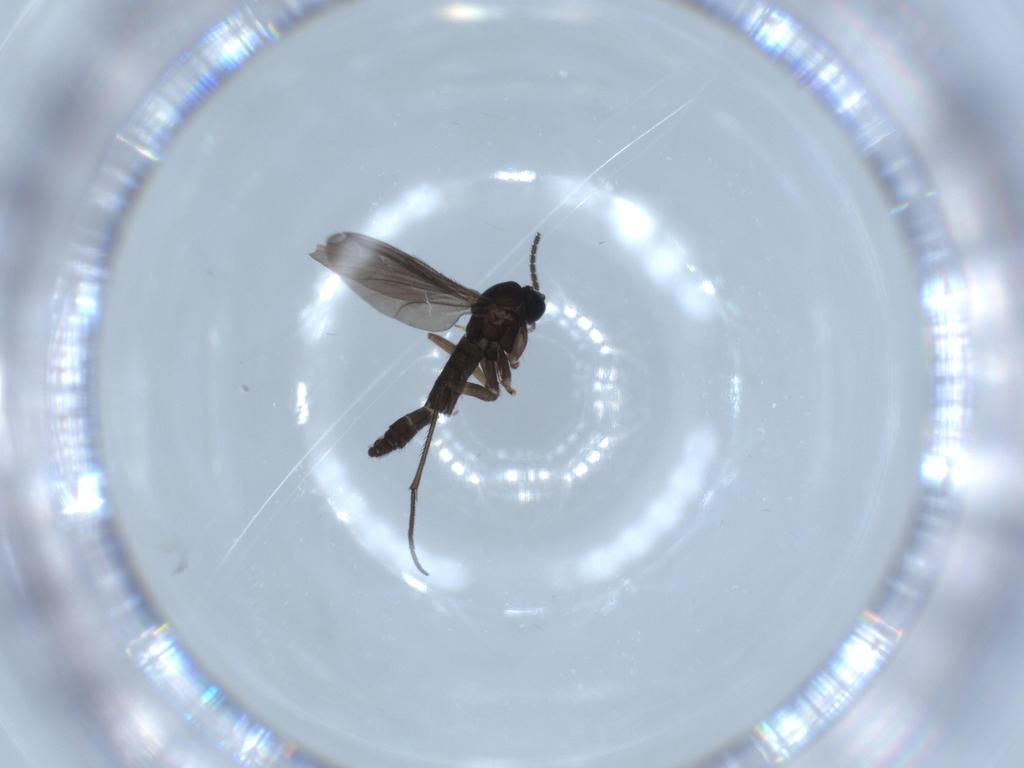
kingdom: Animalia
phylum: Arthropoda
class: Insecta
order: Diptera
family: Sciaridae
